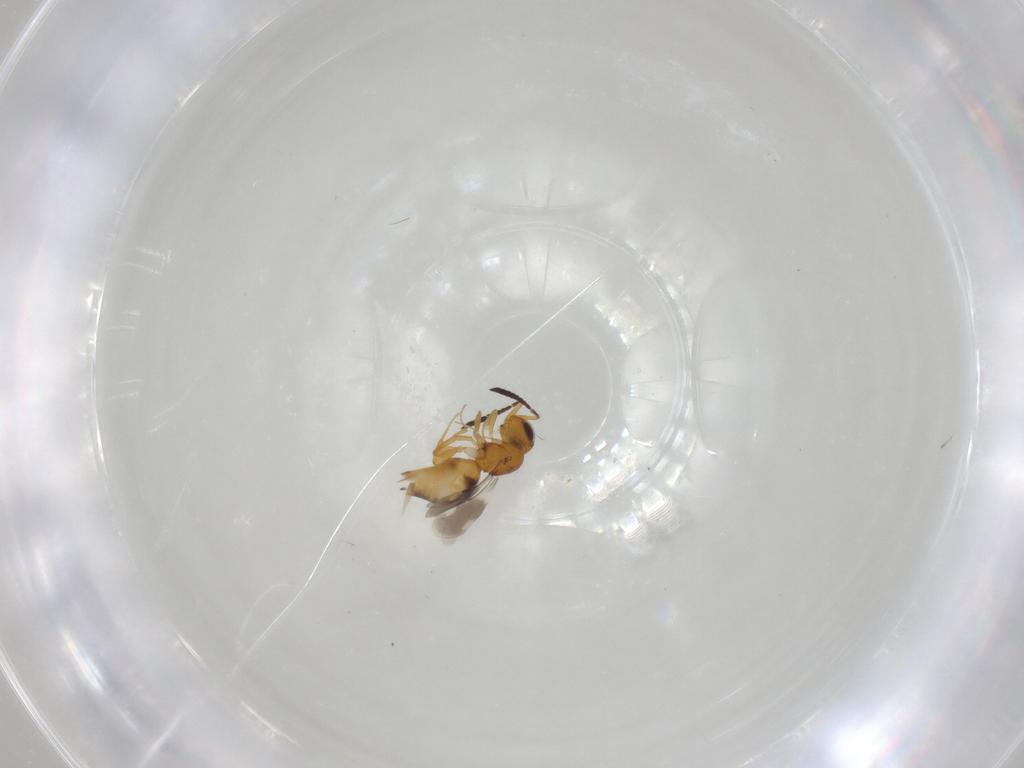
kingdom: Animalia
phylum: Arthropoda
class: Insecta
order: Hymenoptera
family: Ceraphronidae
